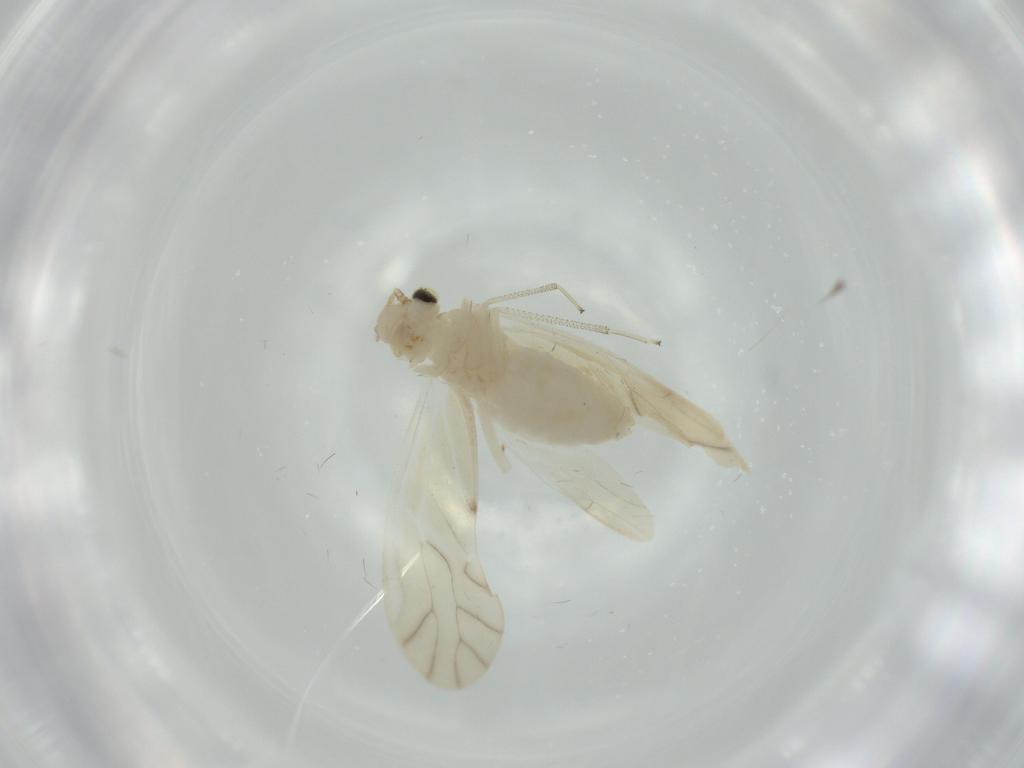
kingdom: Animalia
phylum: Arthropoda
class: Insecta
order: Psocodea
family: Caeciliusidae
